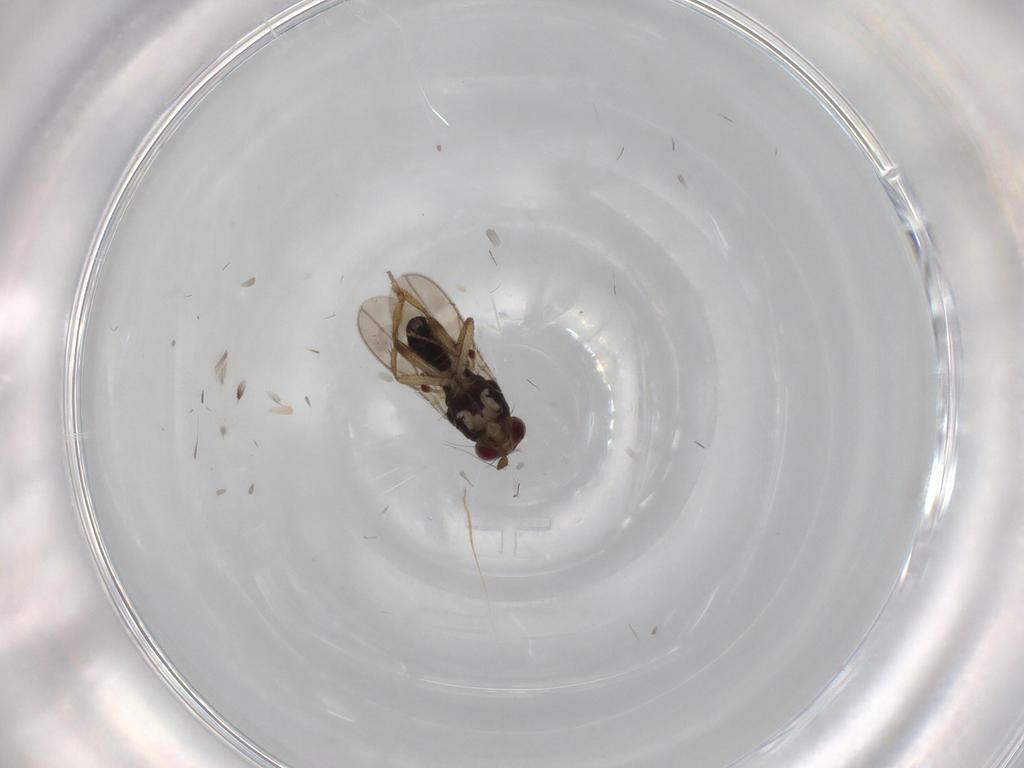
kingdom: Animalia
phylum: Arthropoda
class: Insecta
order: Diptera
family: Sphaeroceridae
